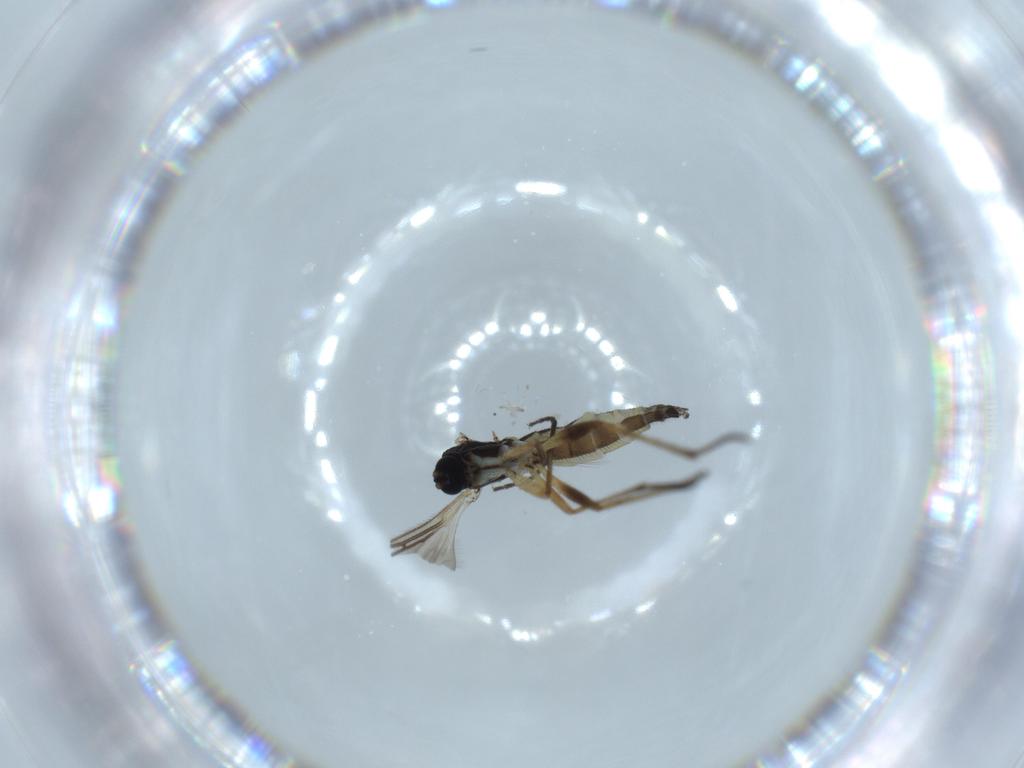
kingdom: Animalia
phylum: Arthropoda
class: Insecta
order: Diptera
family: Sciaridae
